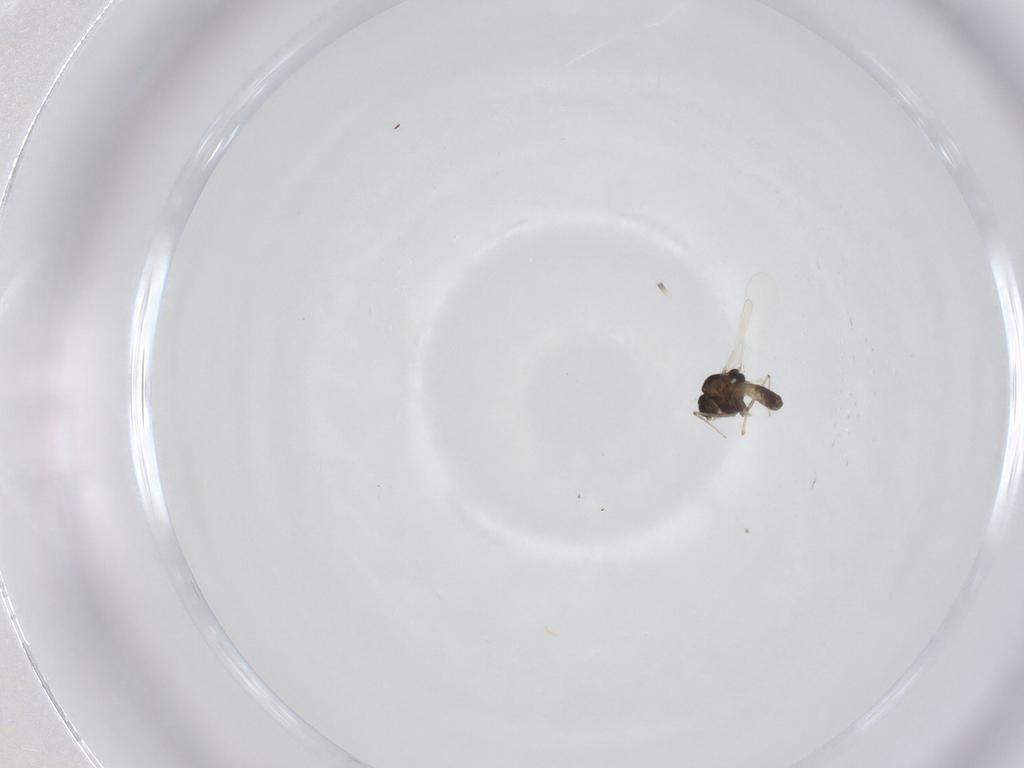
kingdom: Animalia
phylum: Arthropoda
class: Insecta
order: Diptera
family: Chironomidae
